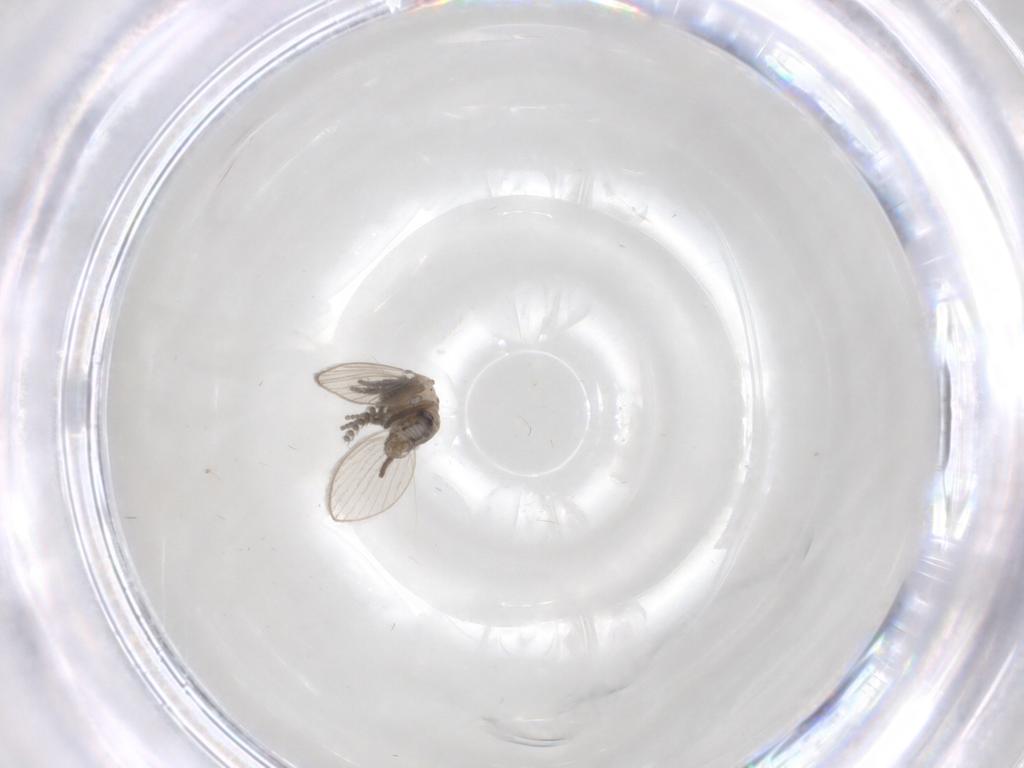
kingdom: Animalia
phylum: Arthropoda
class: Insecta
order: Diptera
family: Psychodidae
